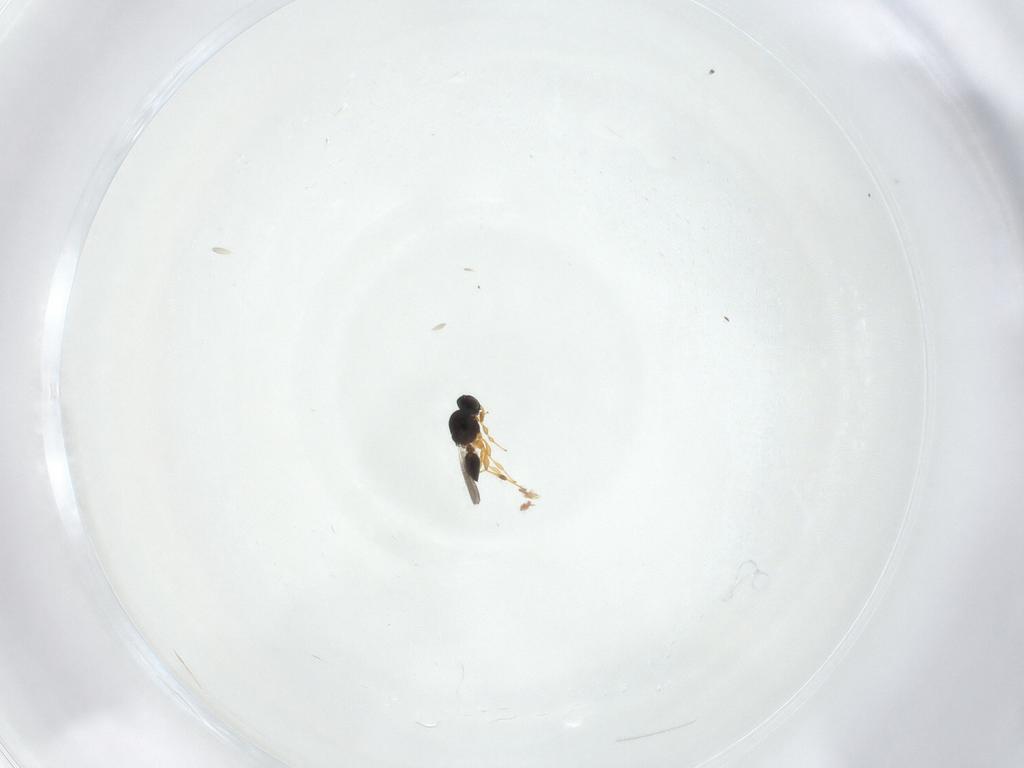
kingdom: Animalia
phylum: Arthropoda
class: Insecta
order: Hymenoptera
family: Platygastridae
